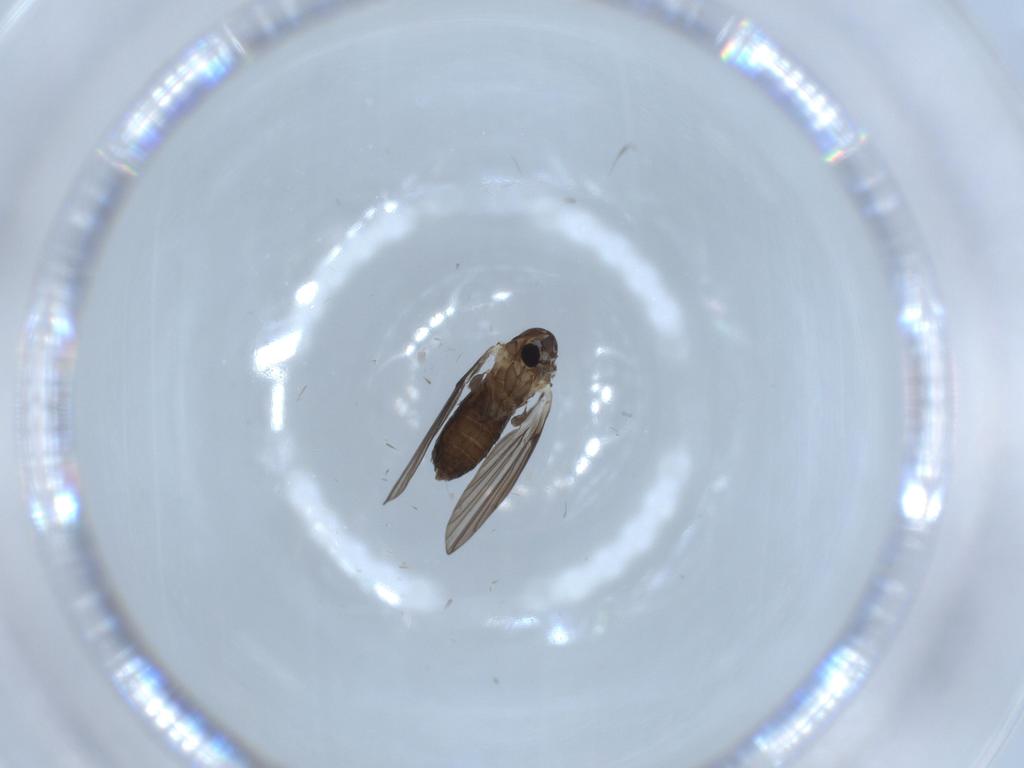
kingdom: Animalia
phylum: Arthropoda
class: Insecta
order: Diptera
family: Psychodidae
